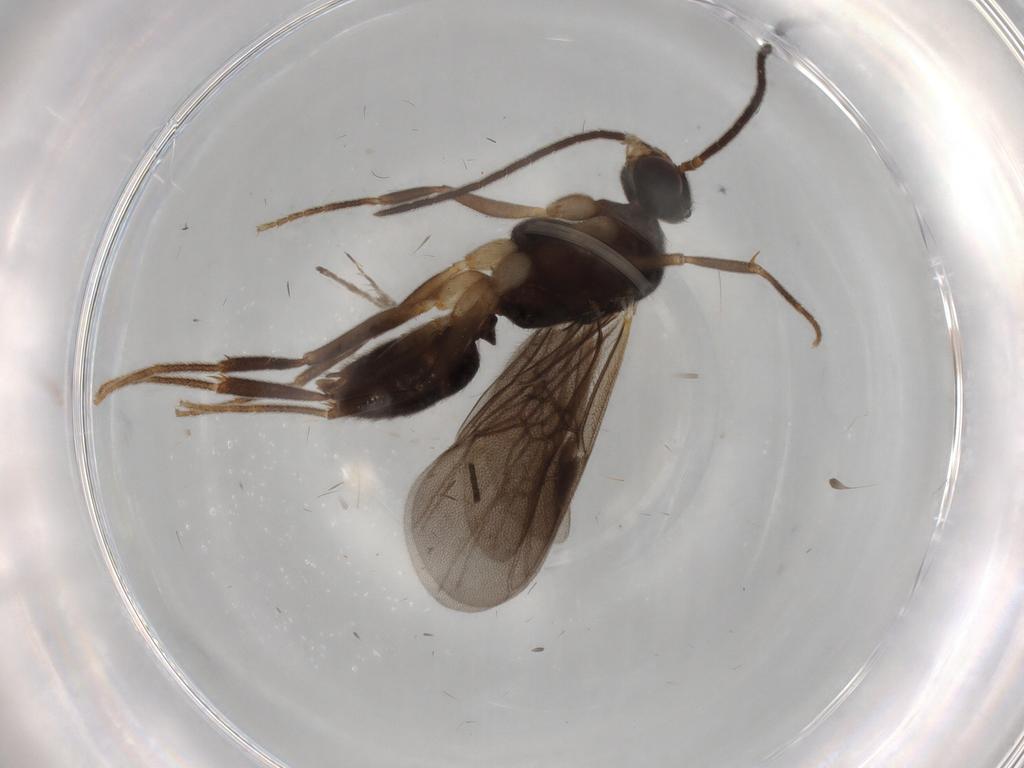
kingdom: Animalia
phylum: Arthropoda
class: Insecta
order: Hymenoptera
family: Formicidae
